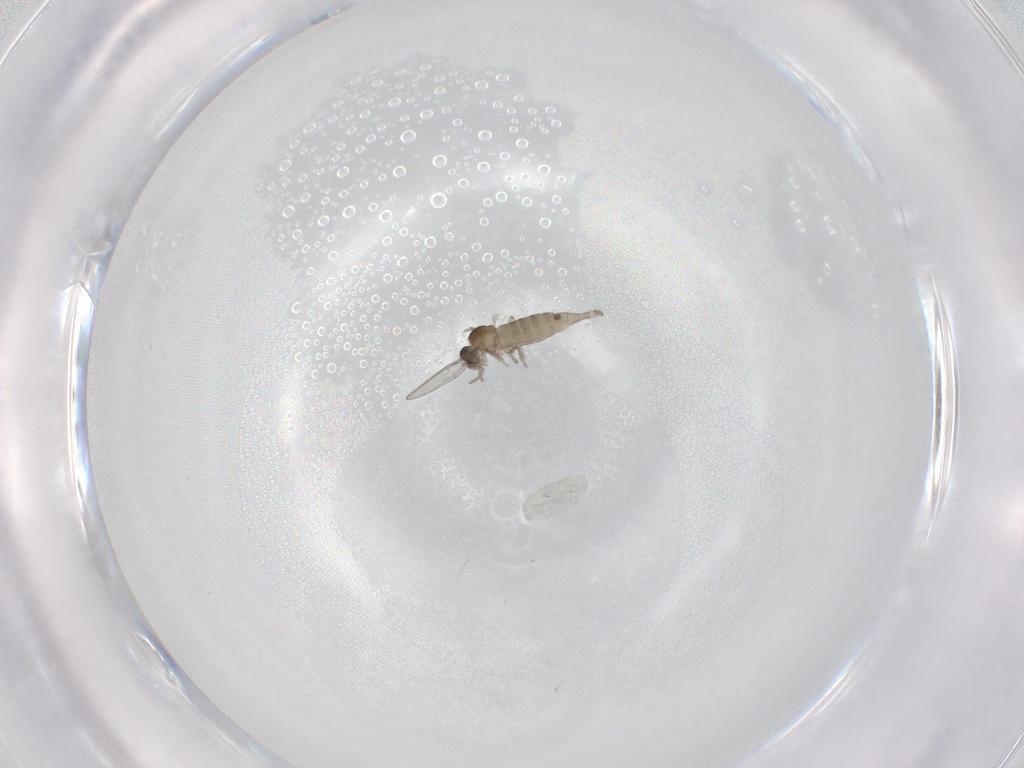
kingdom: Animalia
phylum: Arthropoda
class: Insecta
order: Diptera
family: Cecidomyiidae
